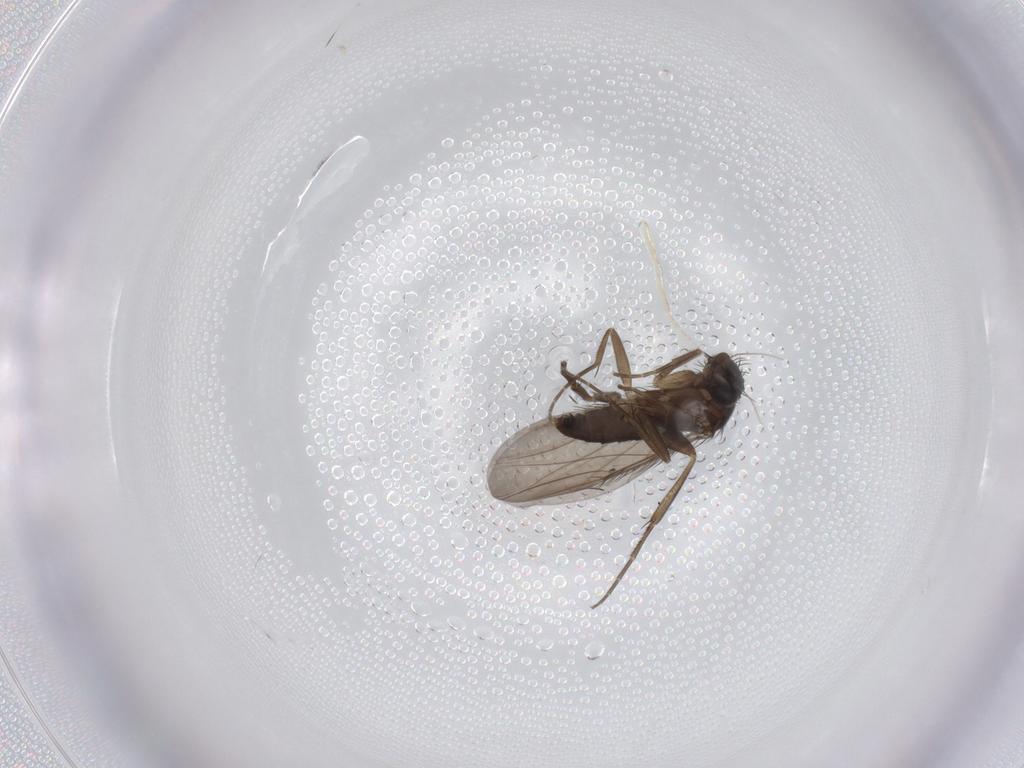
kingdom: Animalia
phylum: Arthropoda
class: Insecta
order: Diptera
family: Phoridae
